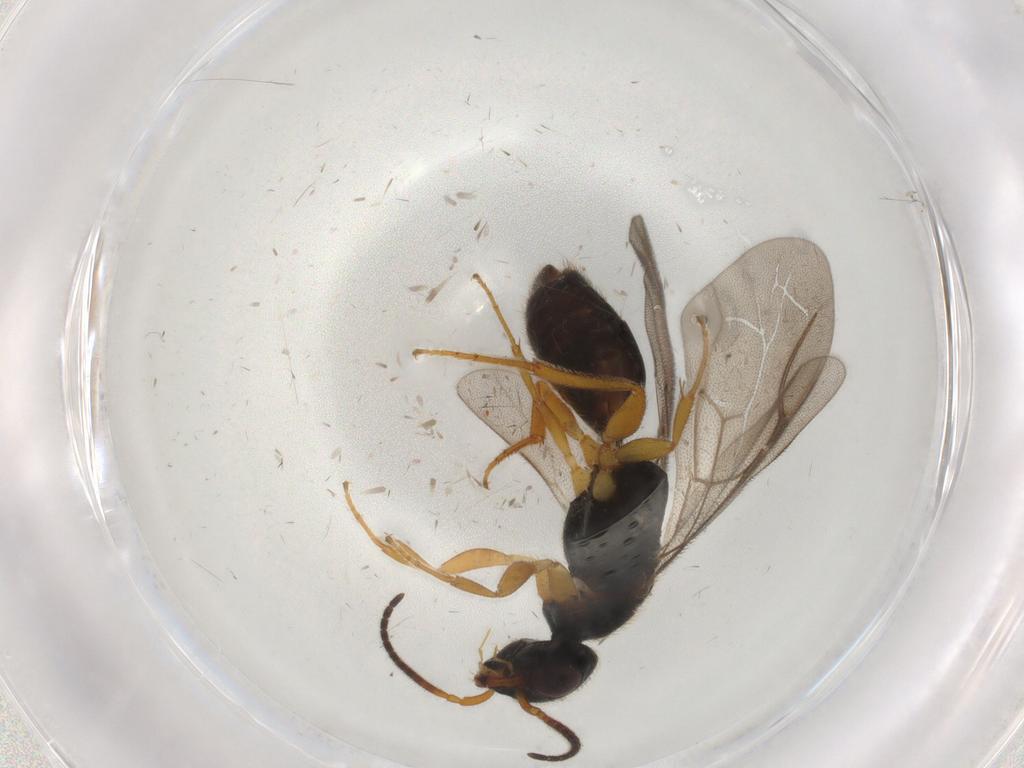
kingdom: Animalia
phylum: Arthropoda
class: Insecta
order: Hymenoptera
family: Bethylidae
